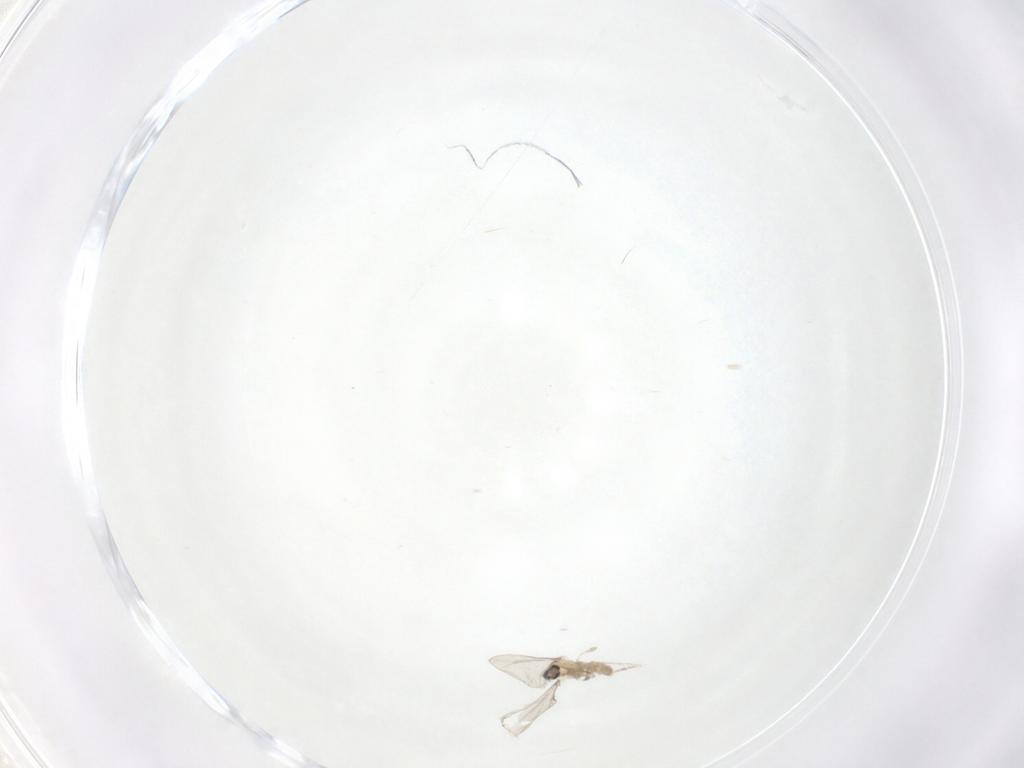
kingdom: Animalia
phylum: Arthropoda
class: Insecta
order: Diptera
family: Cecidomyiidae
